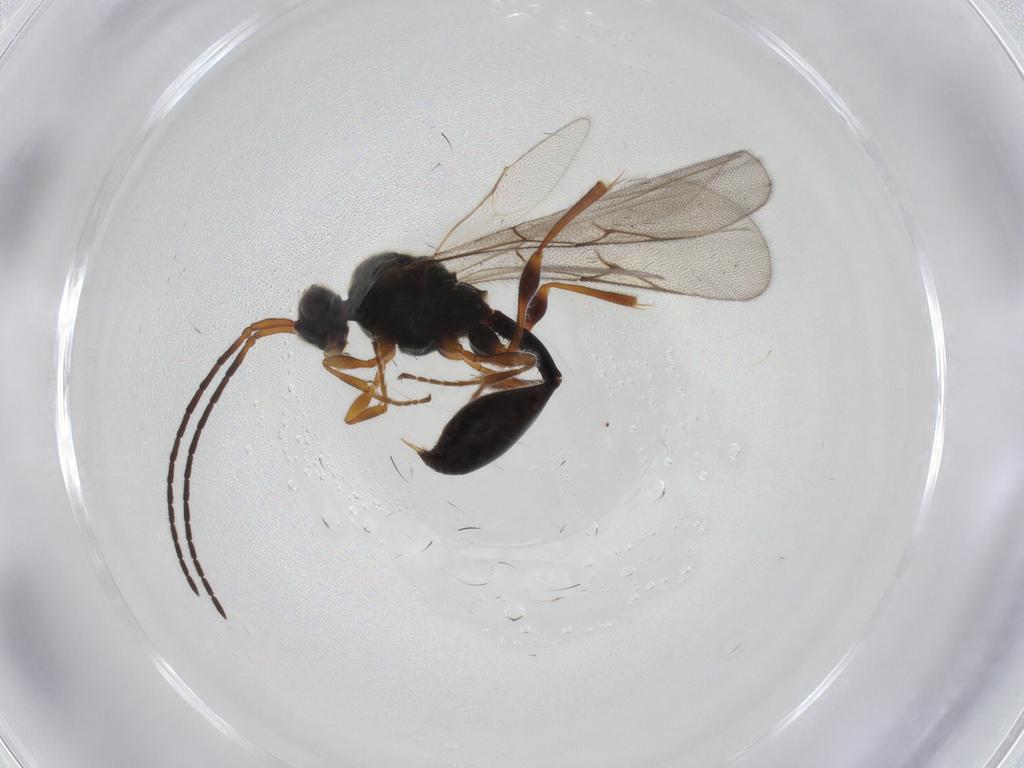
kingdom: Animalia
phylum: Arthropoda
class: Insecta
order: Hymenoptera
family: Diapriidae
